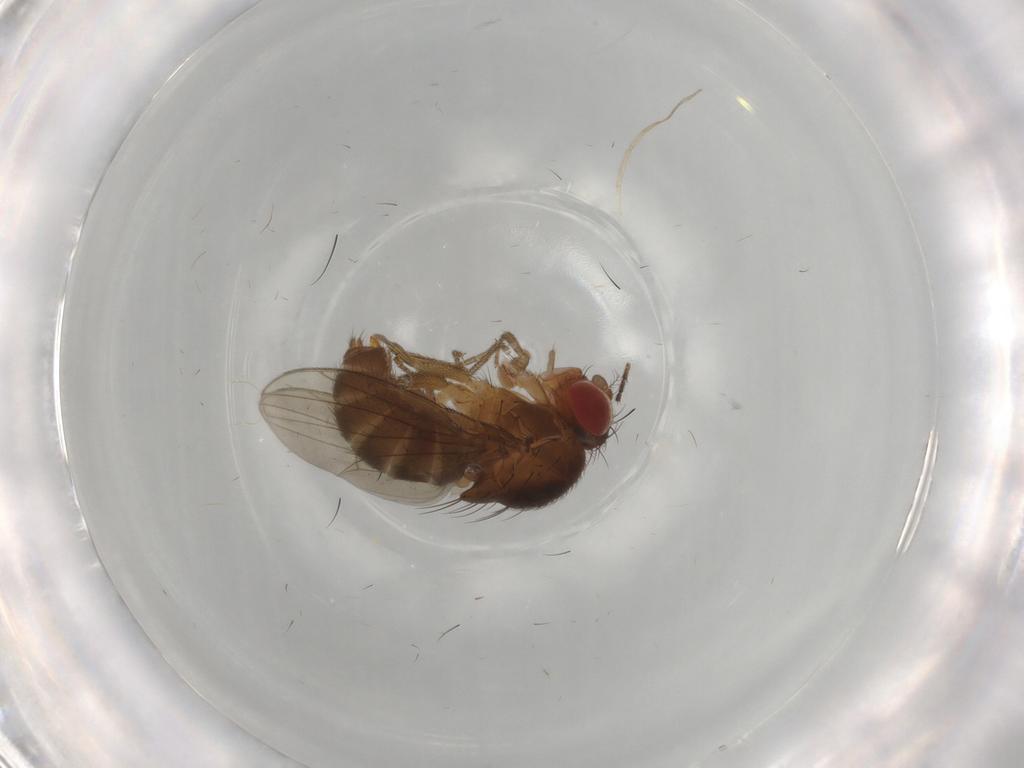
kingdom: Animalia
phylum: Arthropoda
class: Insecta
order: Diptera
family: Drosophilidae
